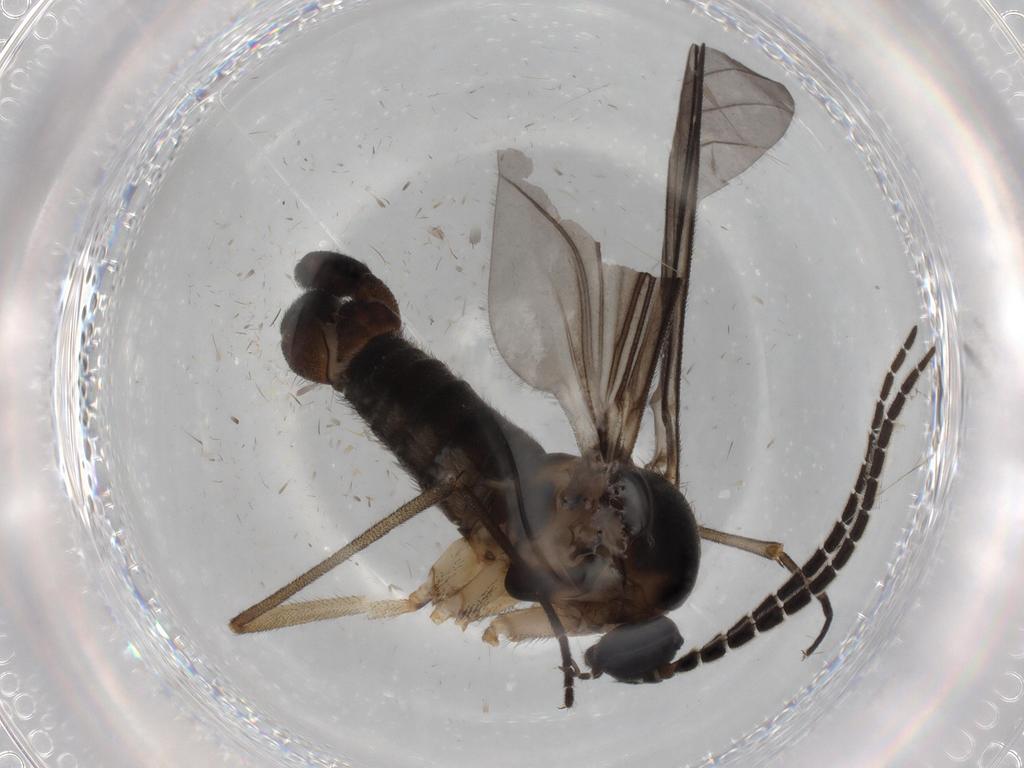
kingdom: Animalia
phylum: Arthropoda
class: Insecta
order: Diptera
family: Sciaridae
